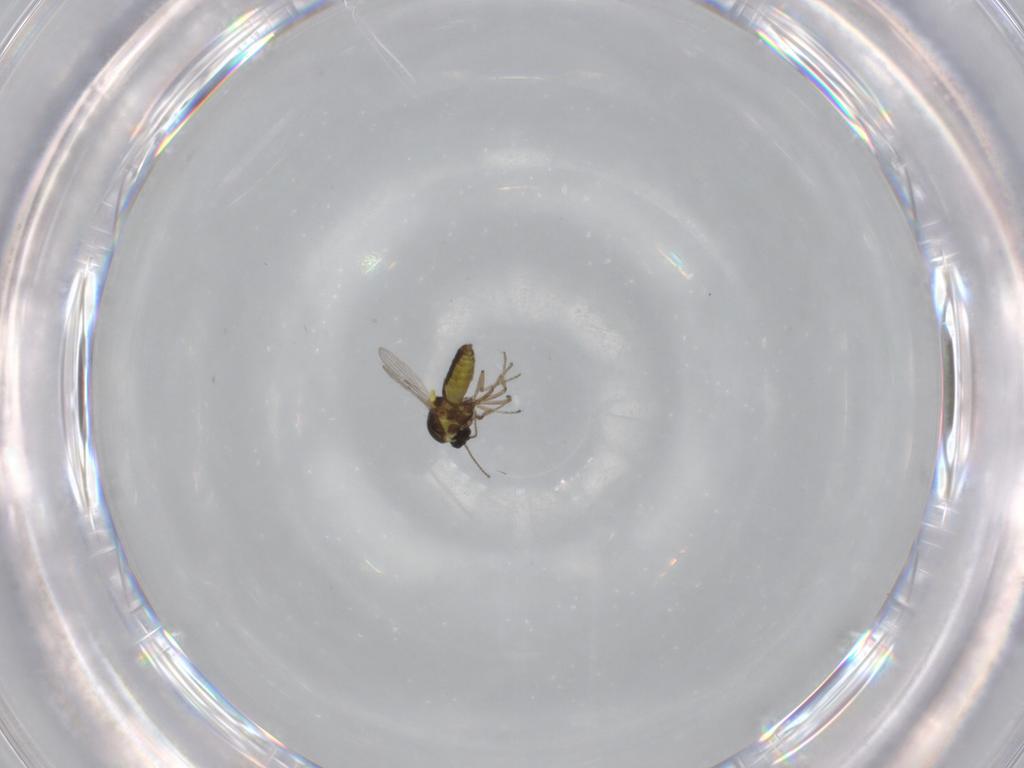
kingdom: Animalia
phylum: Arthropoda
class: Insecta
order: Diptera
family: Ceratopogonidae
